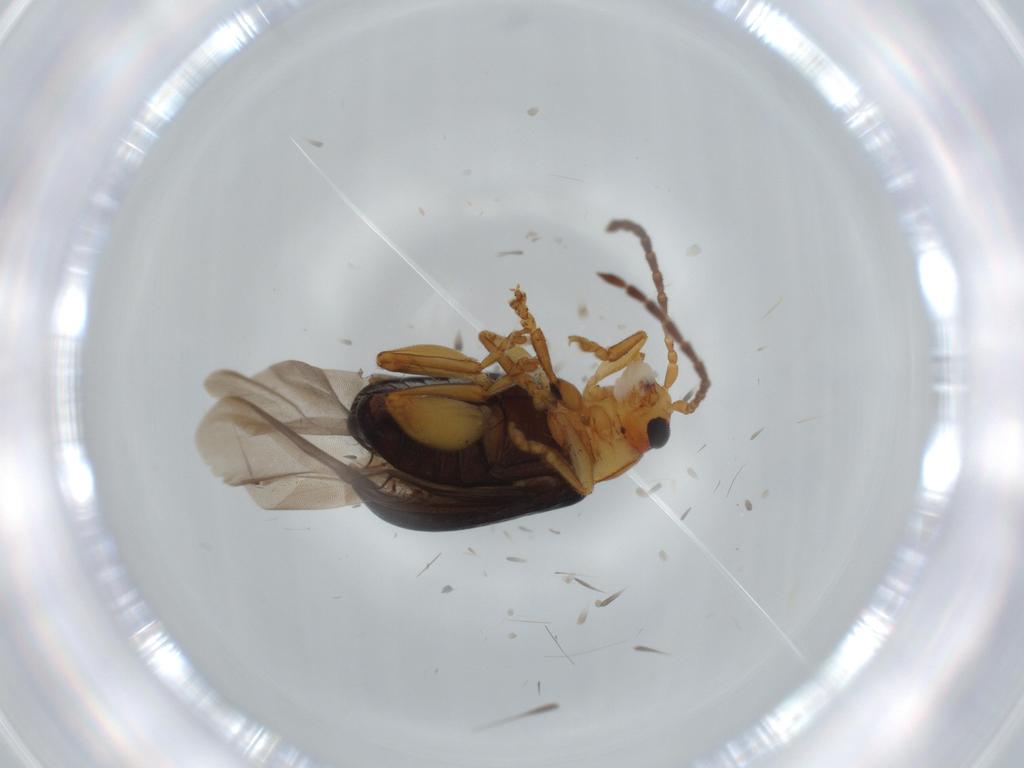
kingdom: Animalia
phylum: Arthropoda
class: Insecta
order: Coleoptera
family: Chrysomelidae
